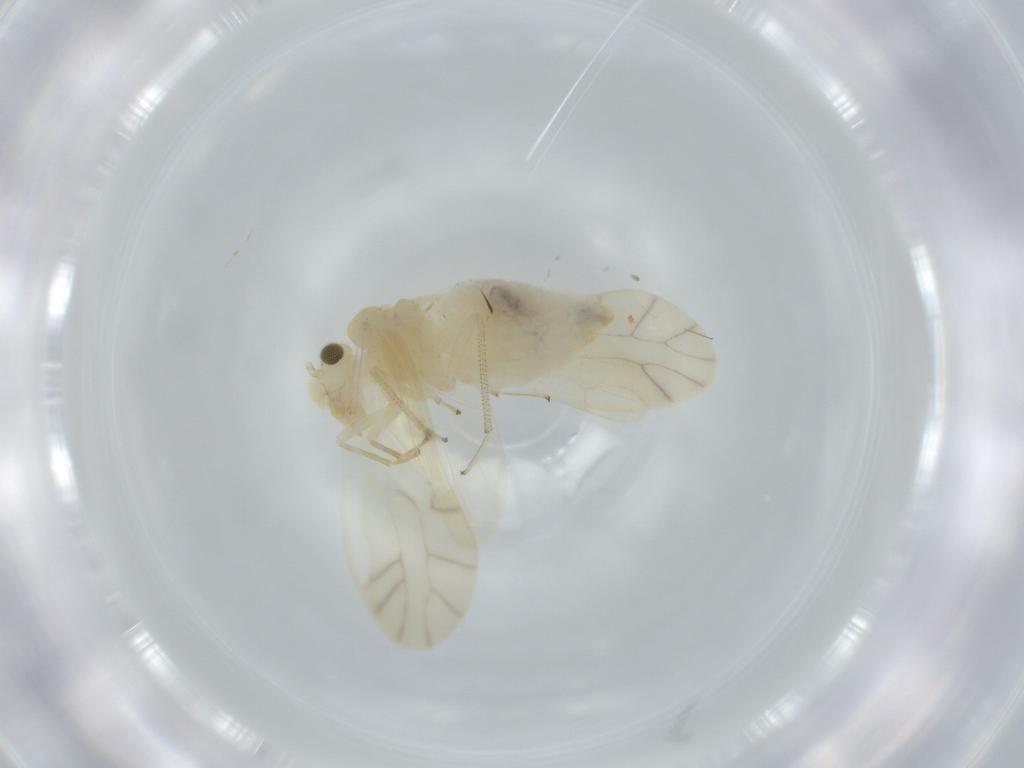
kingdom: Animalia
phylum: Arthropoda
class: Insecta
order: Psocodea
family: Caeciliusidae
